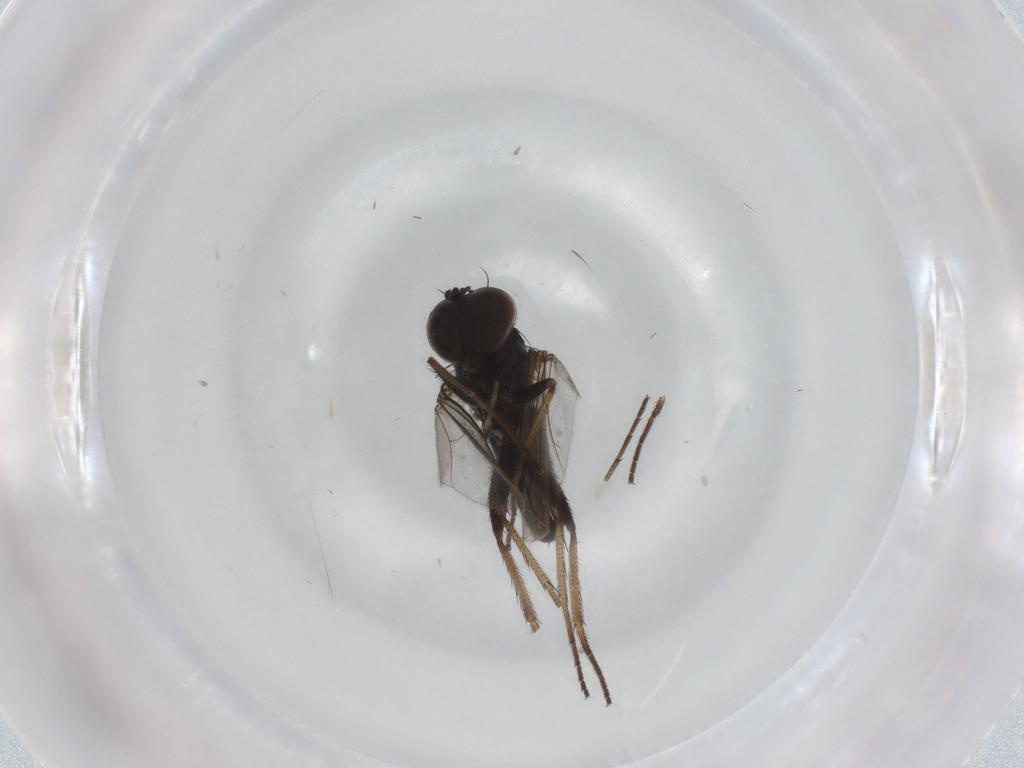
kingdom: Animalia
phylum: Arthropoda
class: Insecta
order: Diptera
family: Dolichopodidae
